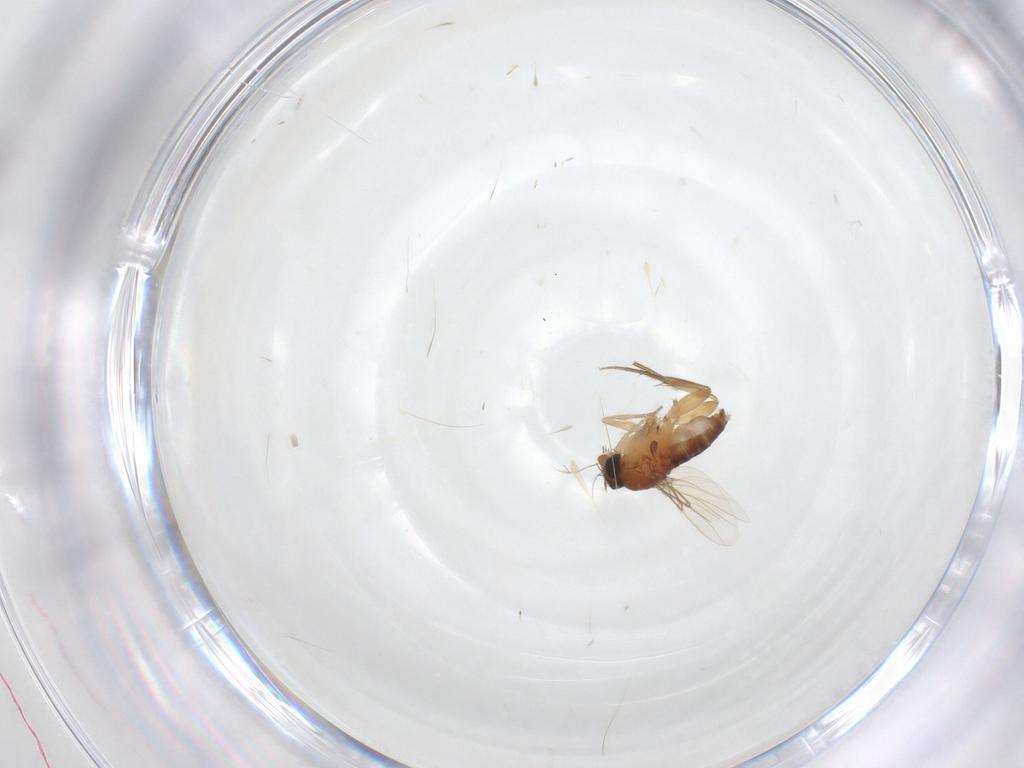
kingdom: Animalia
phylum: Arthropoda
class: Insecta
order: Diptera
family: Phoridae
